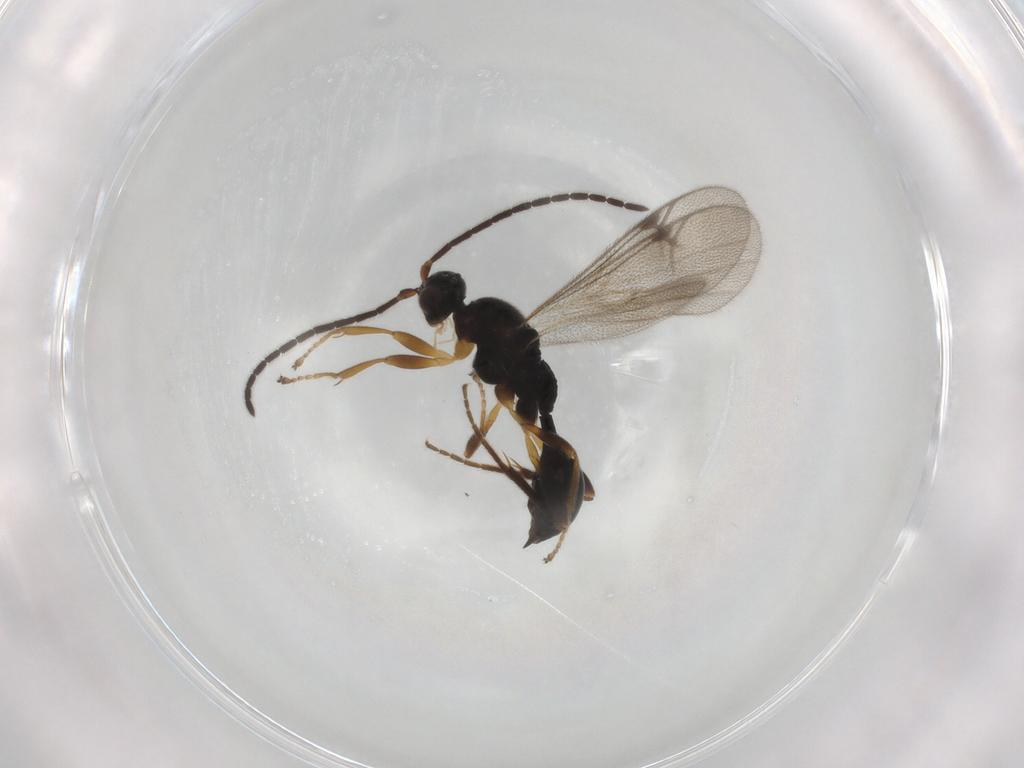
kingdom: Animalia
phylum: Arthropoda
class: Insecta
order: Hymenoptera
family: Proctotrupidae
